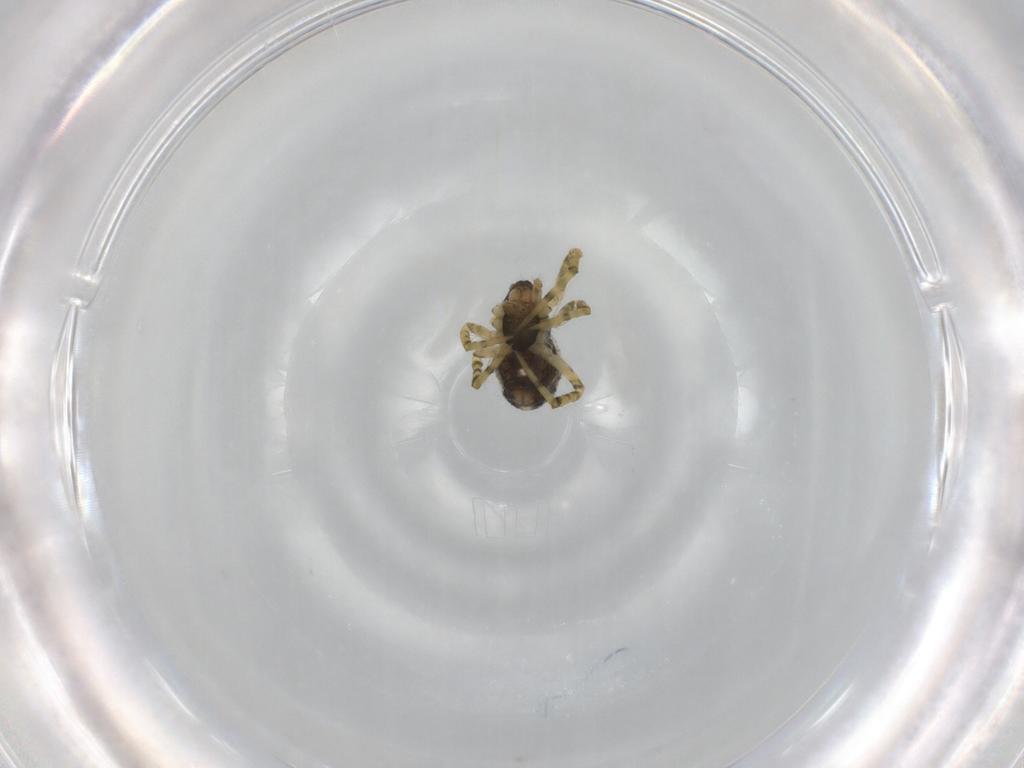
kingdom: Animalia
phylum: Arthropoda
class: Arachnida
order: Araneae
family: Theridiidae
